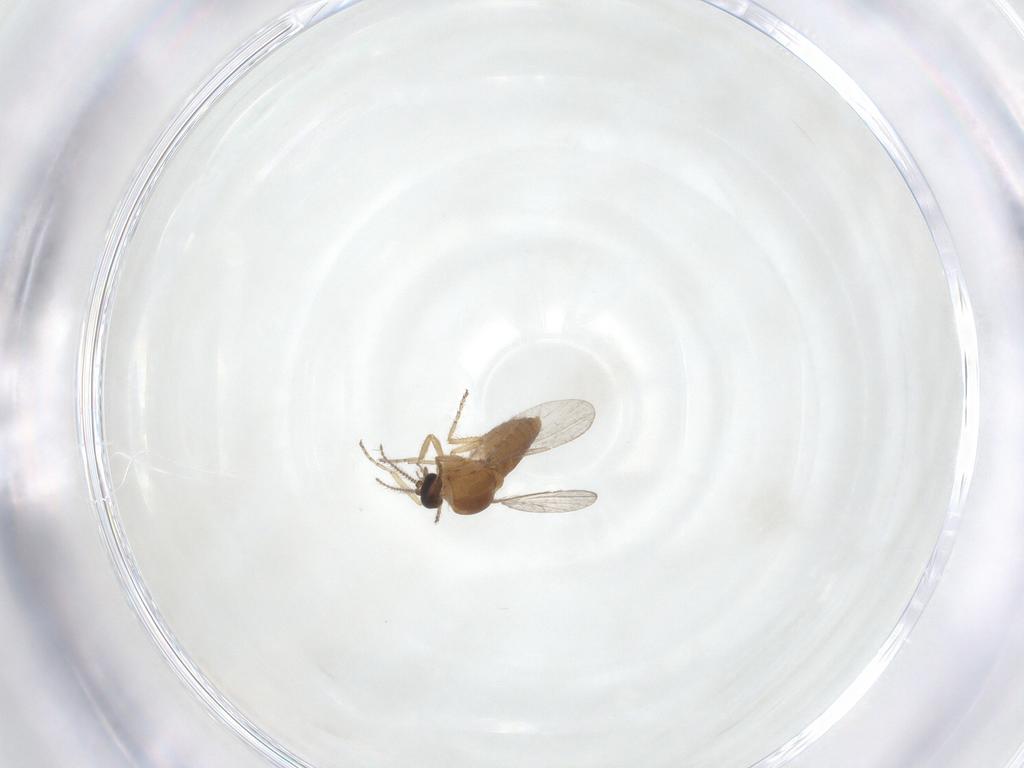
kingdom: Animalia
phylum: Arthropoda
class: Insecta
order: Diptera
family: Ceratopogonidae
